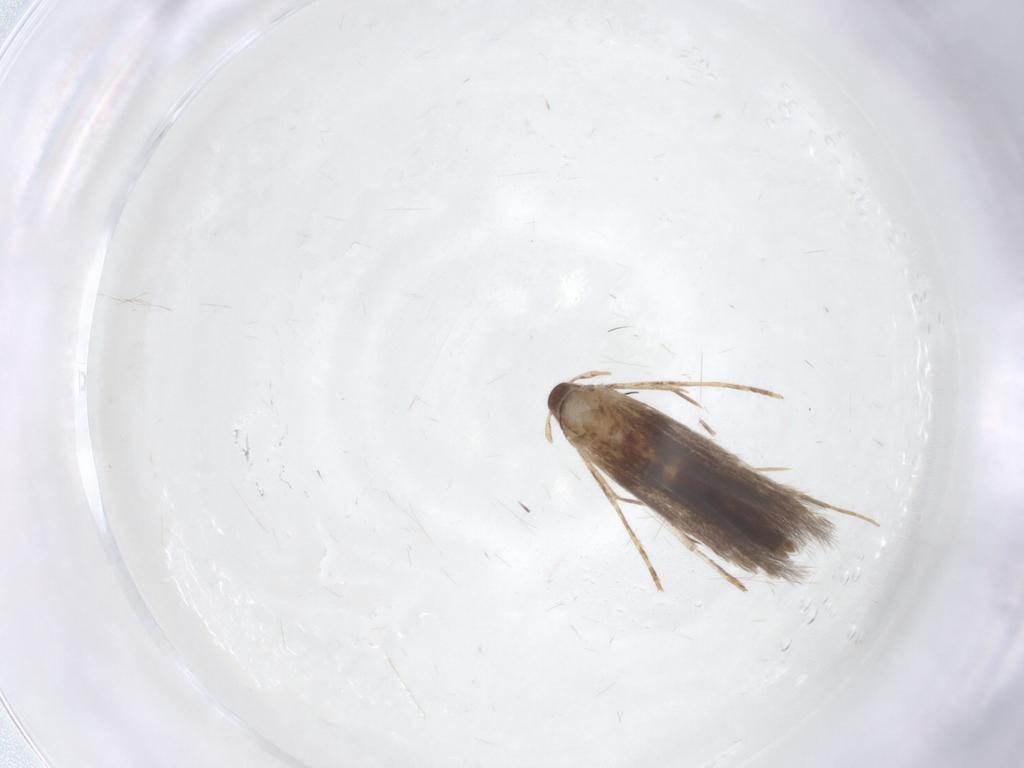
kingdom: Animalia
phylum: Arthropoda
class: Insecta
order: Lepidoptera
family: Cosmopterigidae
